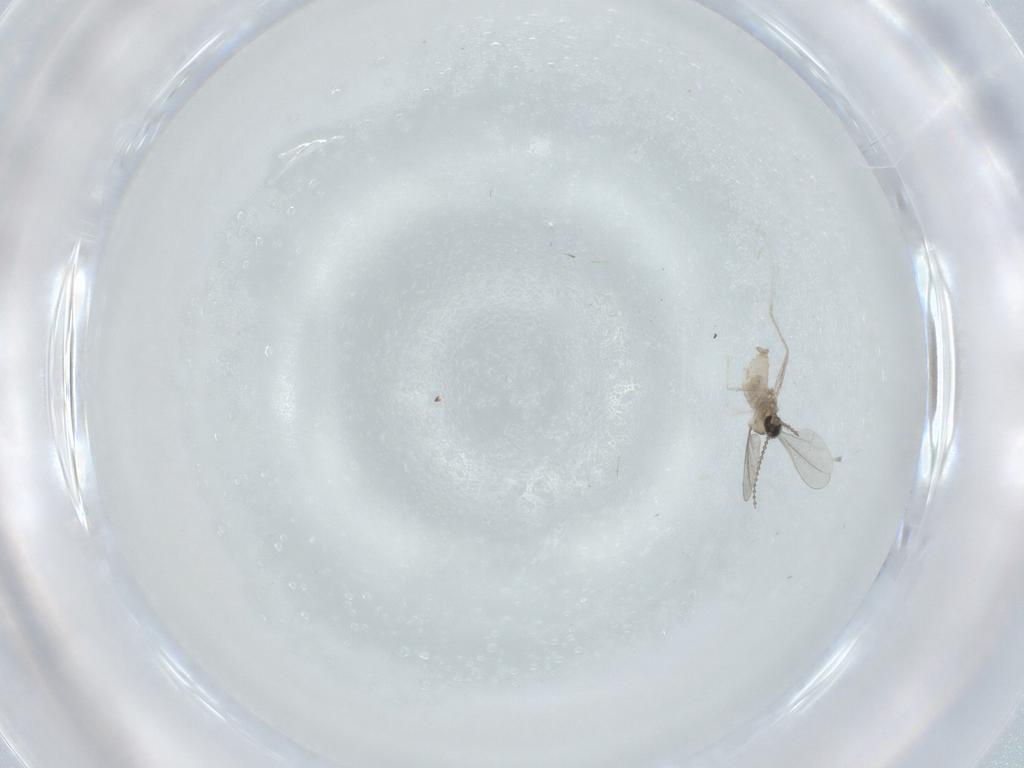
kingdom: Animalia
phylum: Arthropoda
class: Insecta
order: Diptera
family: Cecidomyiidae
